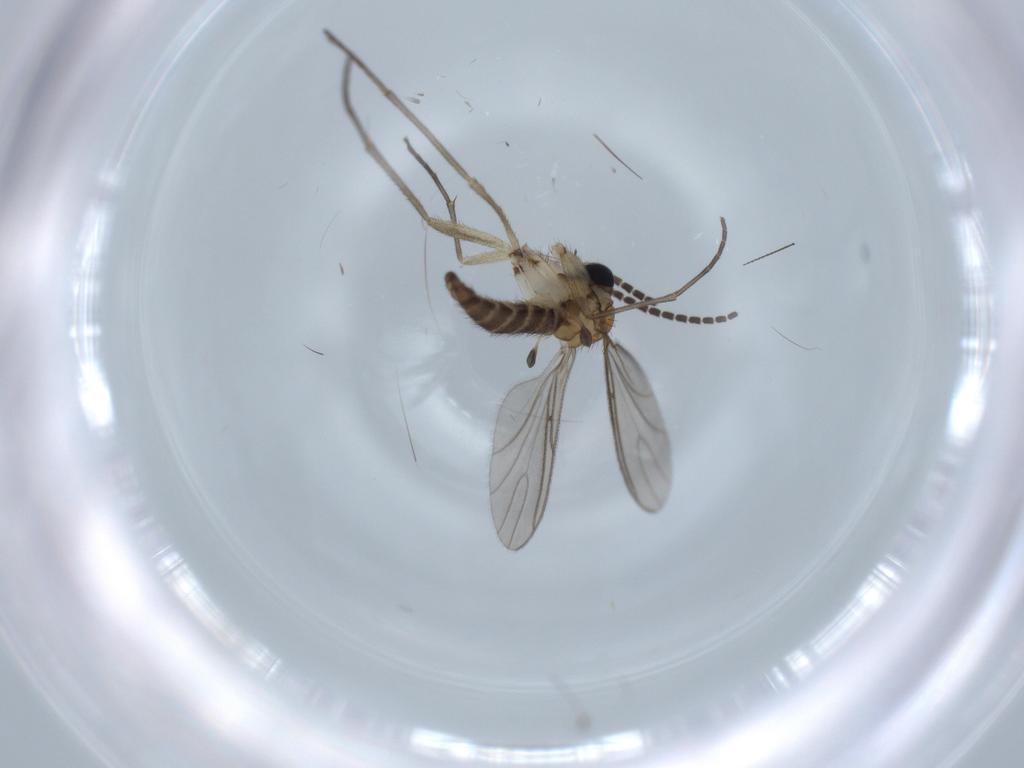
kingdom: Animalia
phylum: Arthropoda
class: Insecta
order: Diptera
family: Sciaridae
